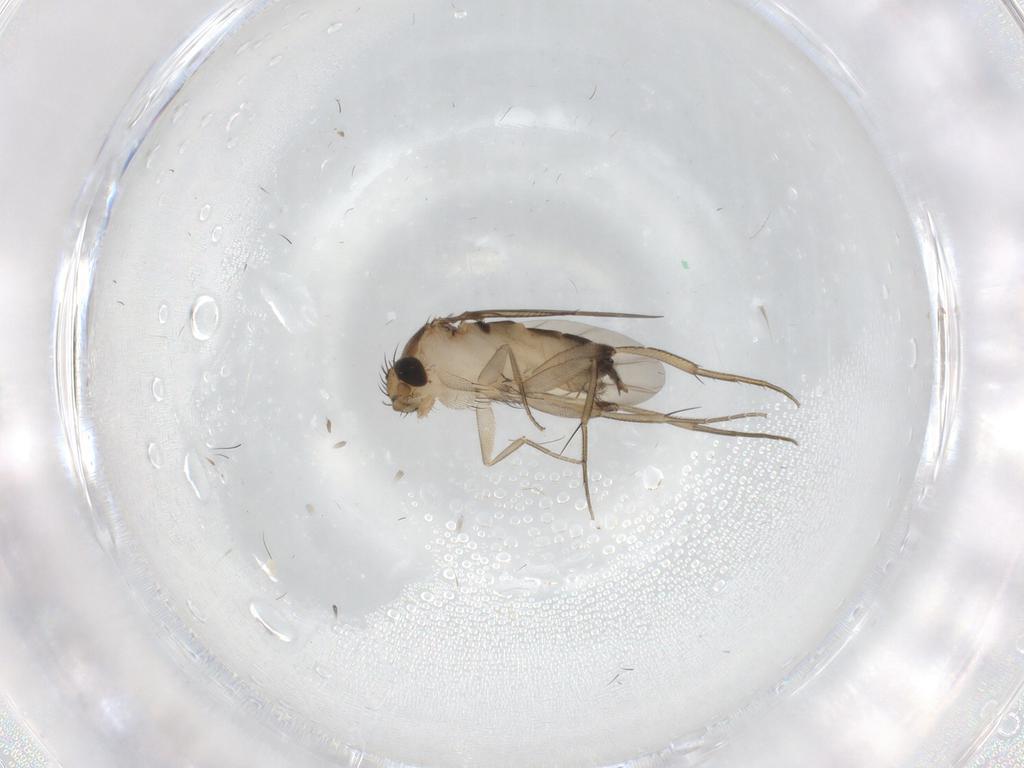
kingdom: Animalia
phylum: Arthropoda
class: Insecta
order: Diptera
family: Phoridae
